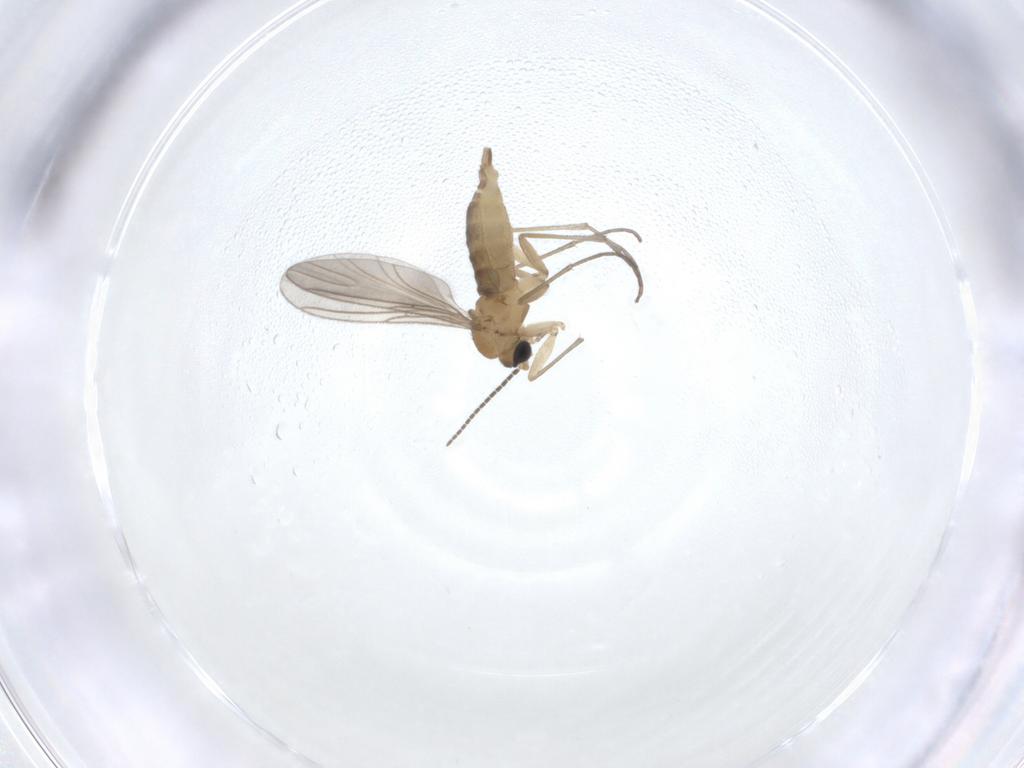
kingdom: Animalia
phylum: Arthropoda
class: Insecta
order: Diptera
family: Sciaridae
